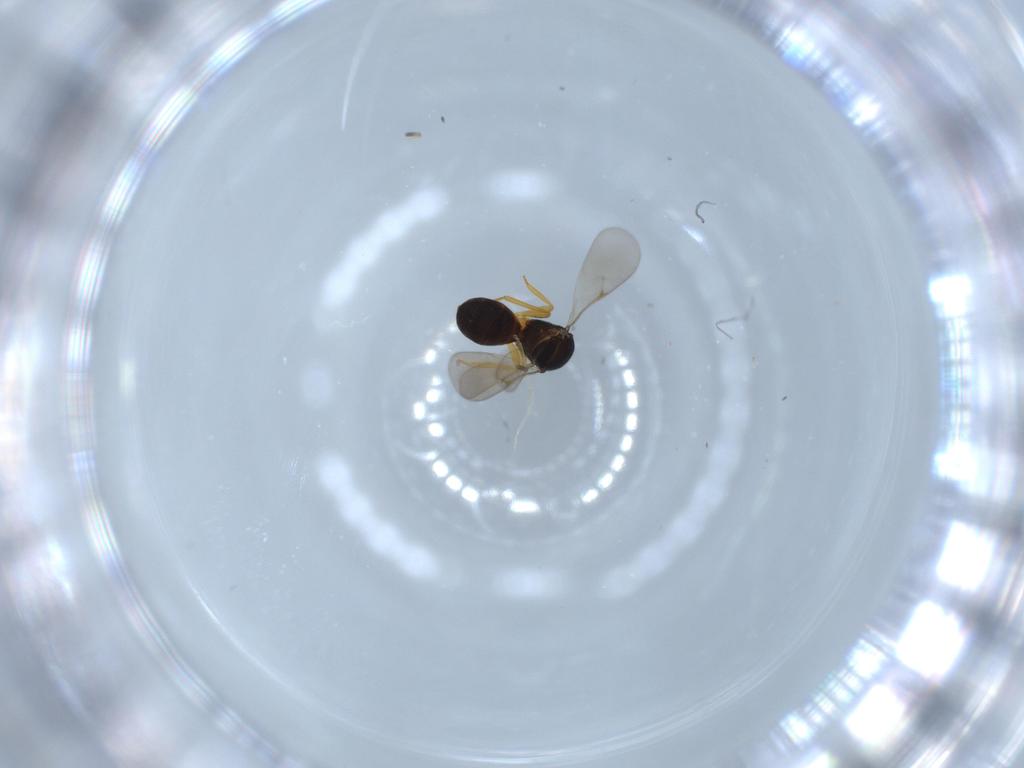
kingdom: Animalia
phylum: Arthropoda
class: Insecta
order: Hymenoptera
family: Scelionidae
